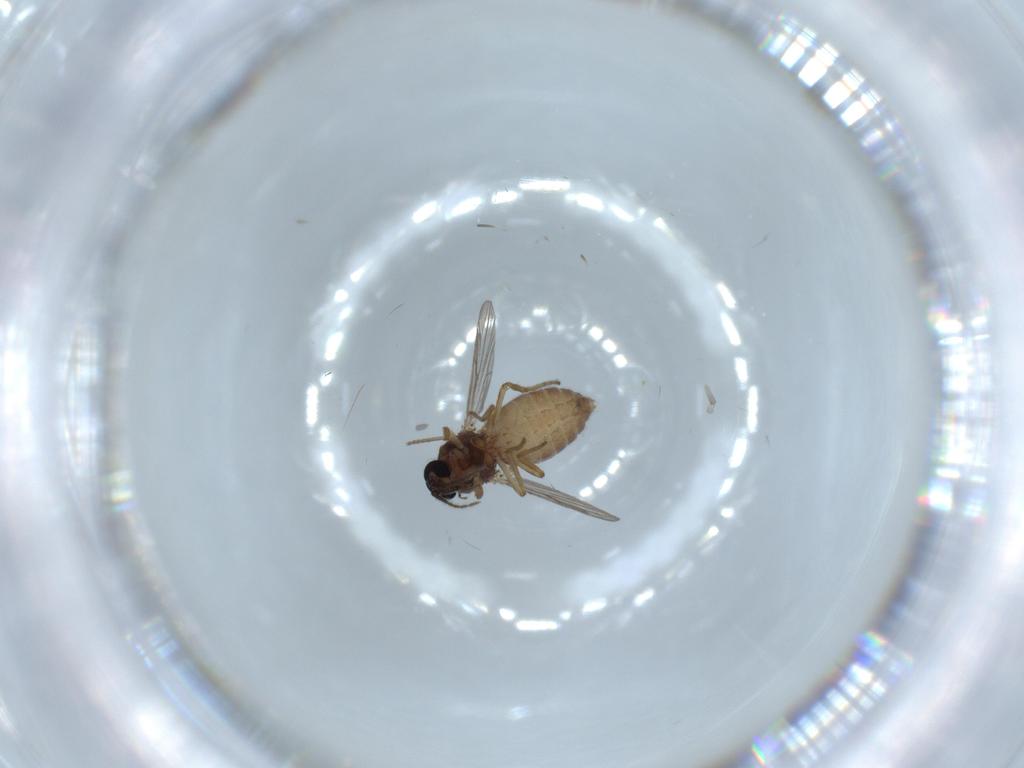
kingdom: Animalia
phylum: Arthropoda
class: Insecta
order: Diptera
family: Ceratopogonidae
